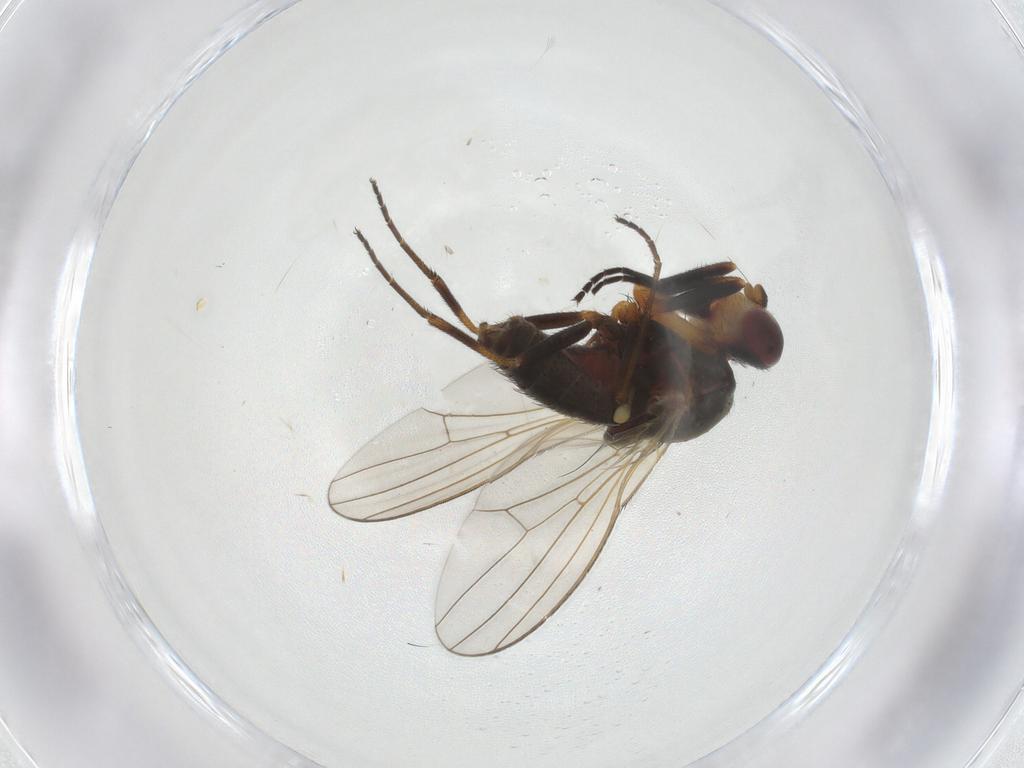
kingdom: Animalia
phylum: Arthropoda
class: Insecta
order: Diptera
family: Canacidae
